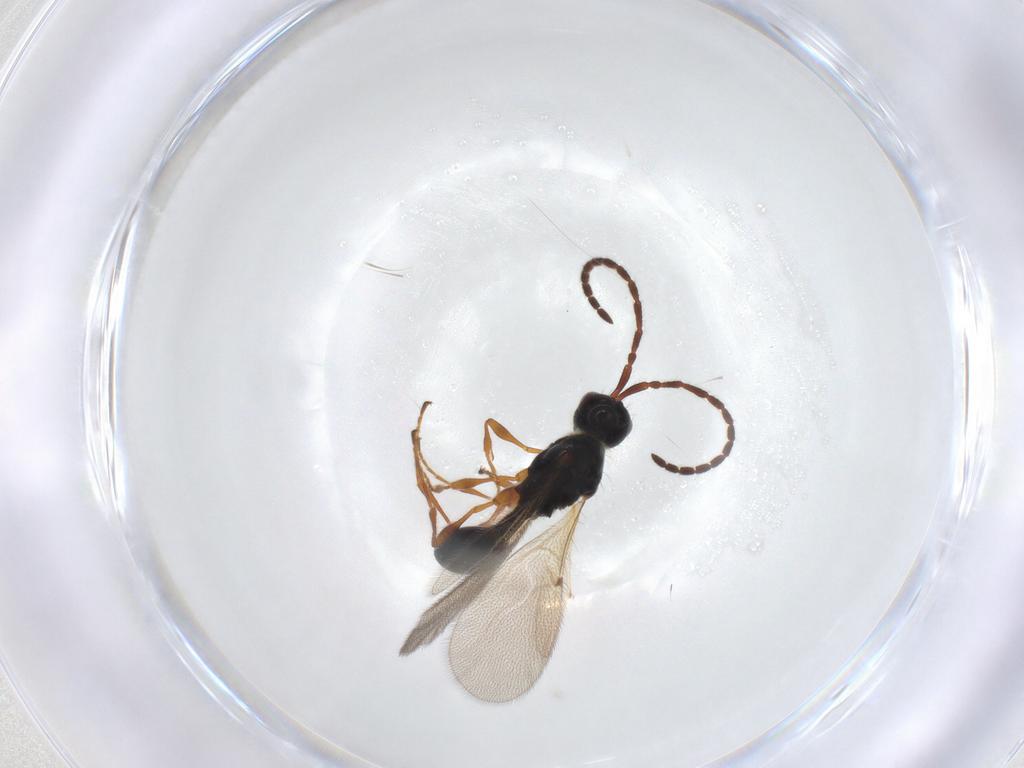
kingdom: Animalia
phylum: Arthropoda
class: Insecta
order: Hymenoptera
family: Diapriidae
